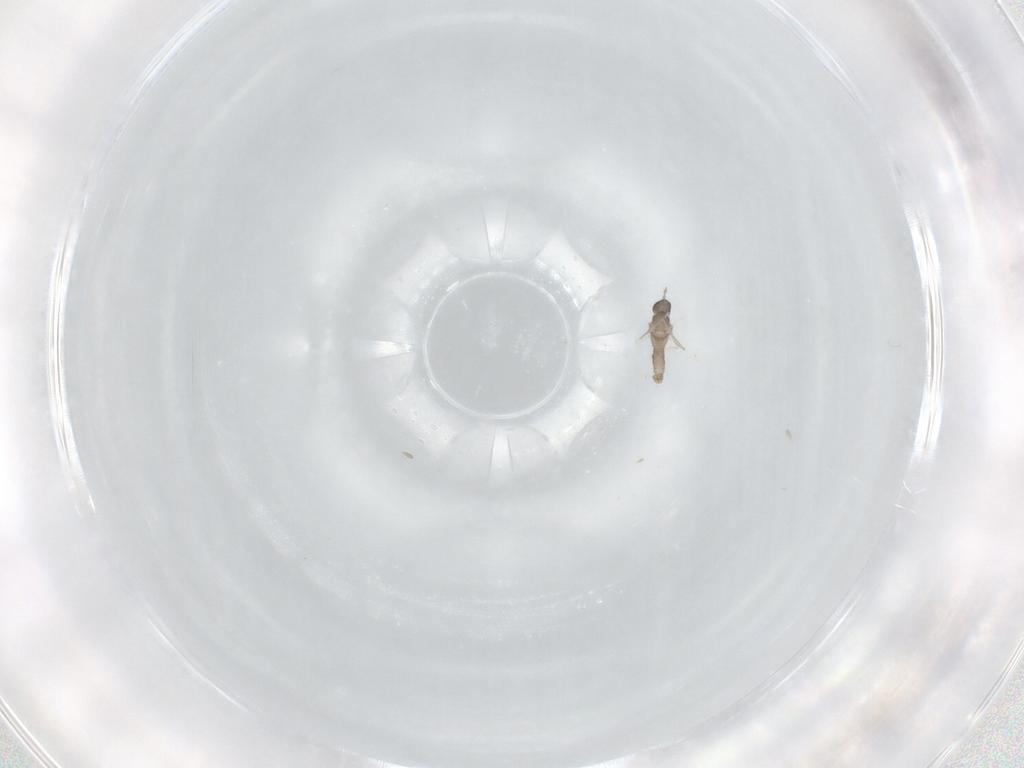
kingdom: Animalia
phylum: Arthropoda
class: Insecta
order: Diptera
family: Cecidomyiidae
